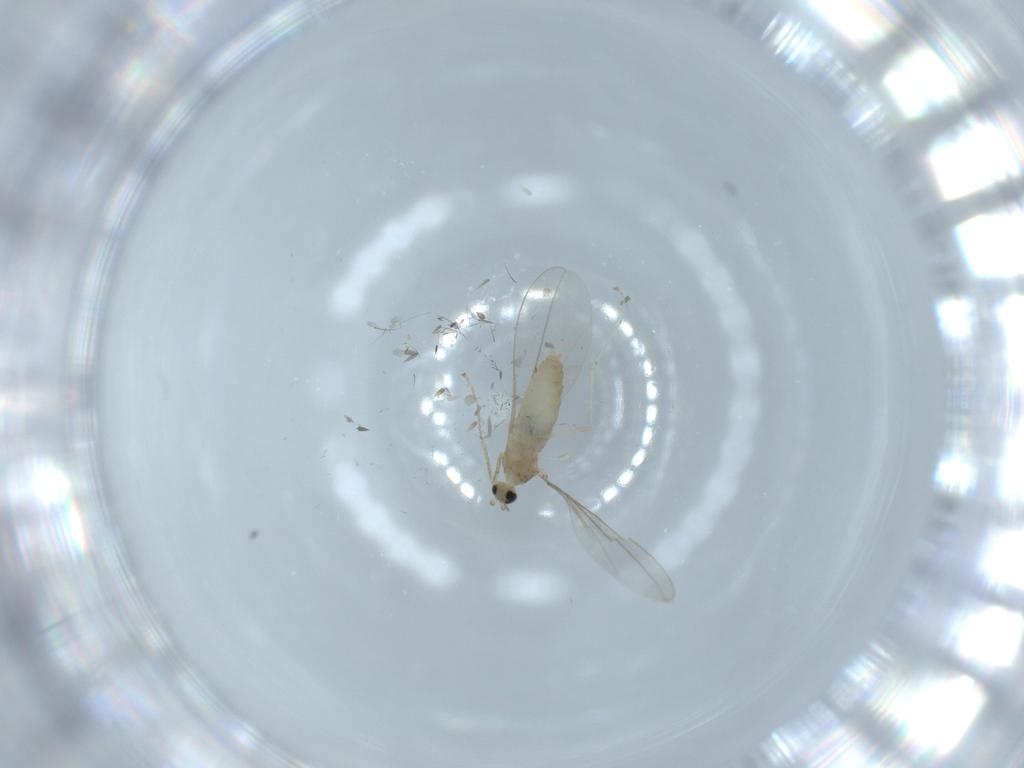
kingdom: Animalia
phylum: Arthropoda
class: Insecta
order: Diptera
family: Cecidomyiidae
